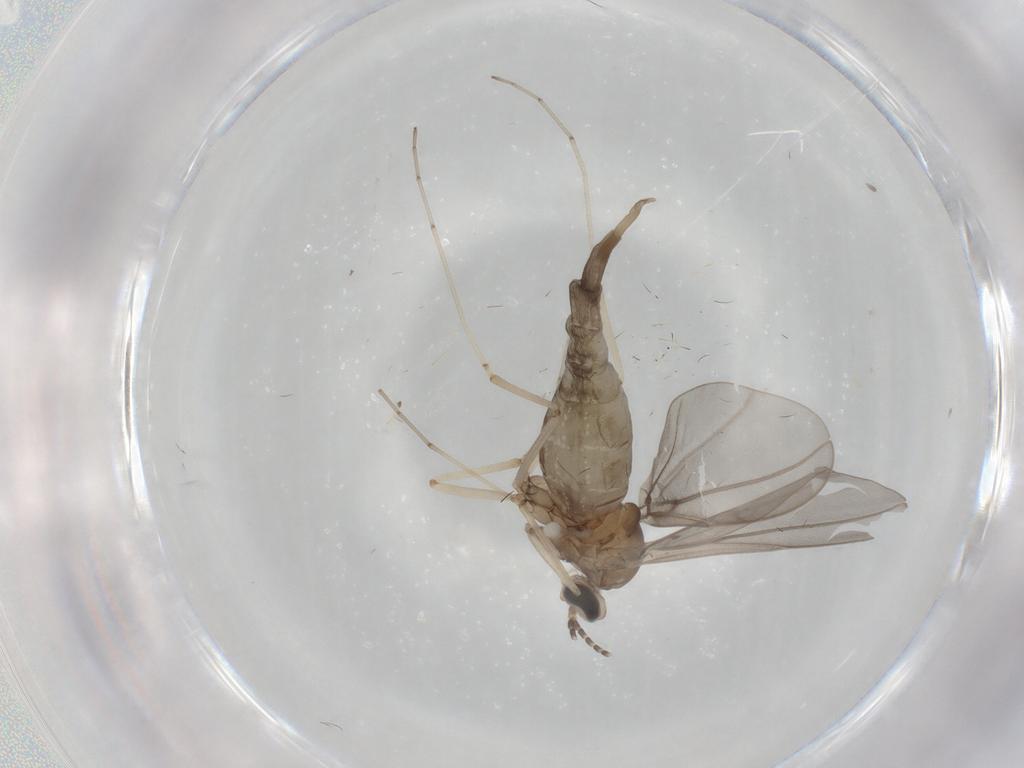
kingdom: Animalia
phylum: Arthropoda
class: Insecta
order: Diptera
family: Cecidomyiidae
